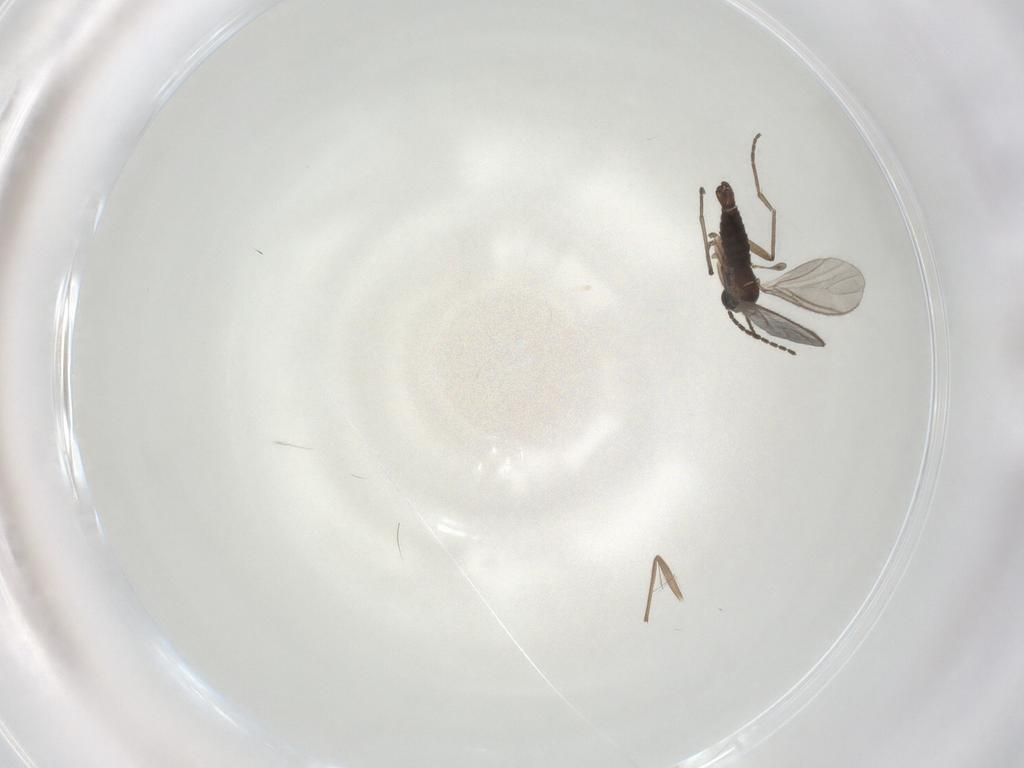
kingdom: Animalia
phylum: Arthropoda
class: Insecta
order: Diptera
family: Sciaridae
